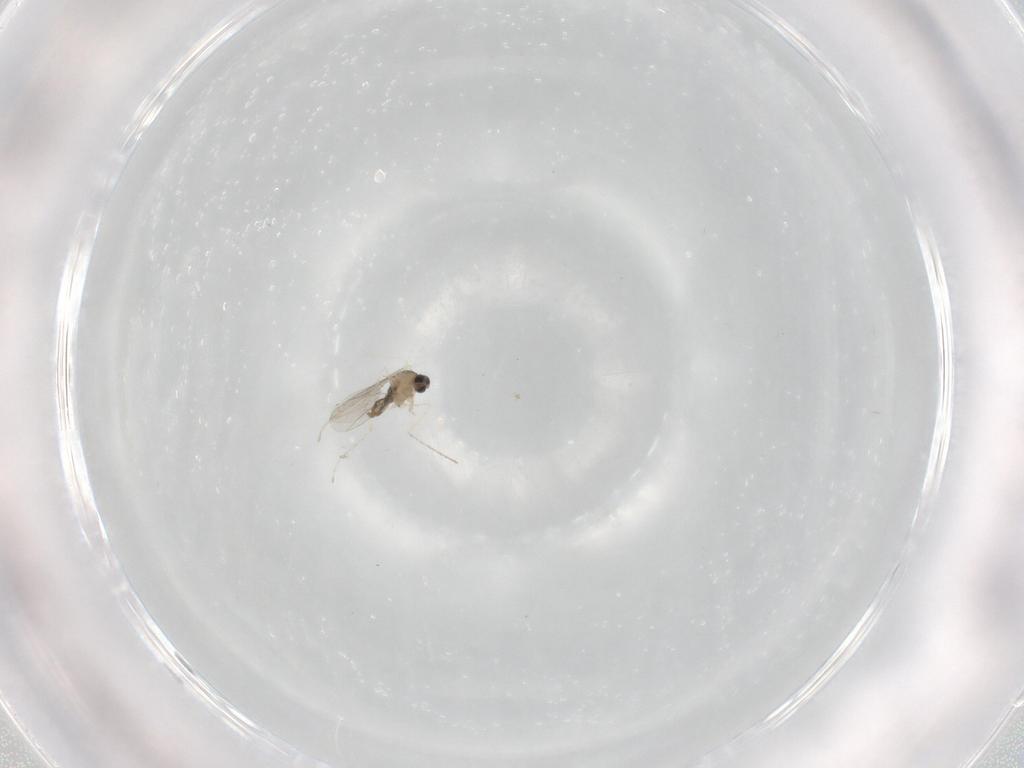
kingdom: Animalia
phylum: Arthropoda
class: Insecta
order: Diptera
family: Cecidomyiidae
